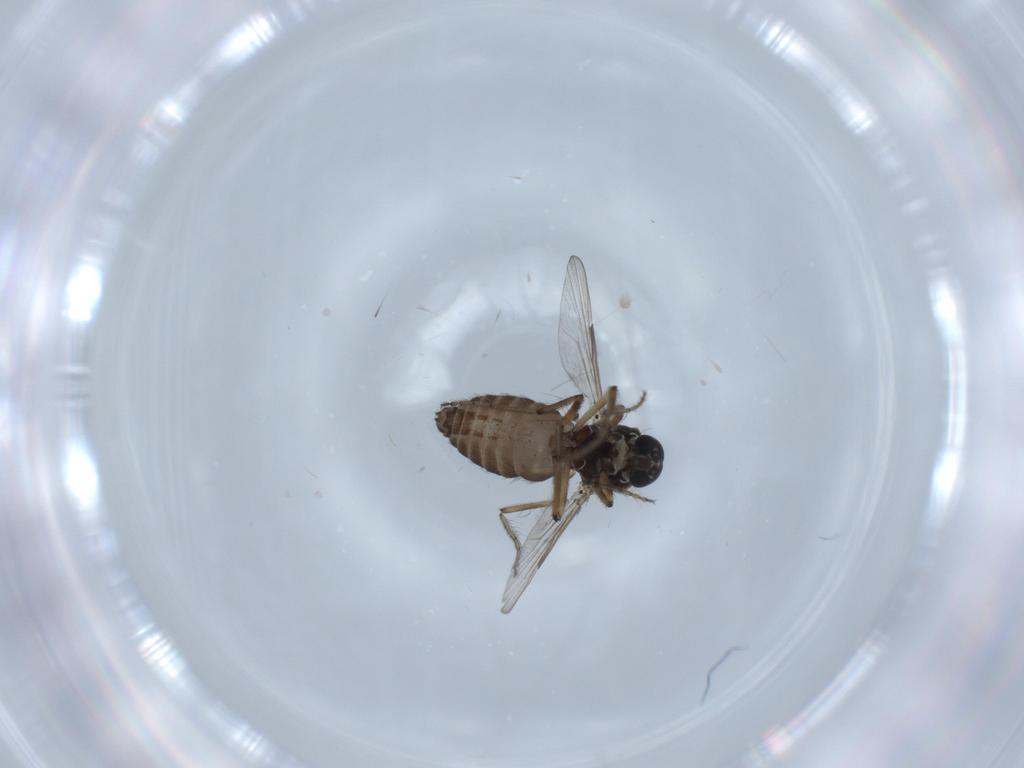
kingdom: Animalia
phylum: Arthropoda
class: Insecta
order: Diptera
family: Ceratopogonidae
